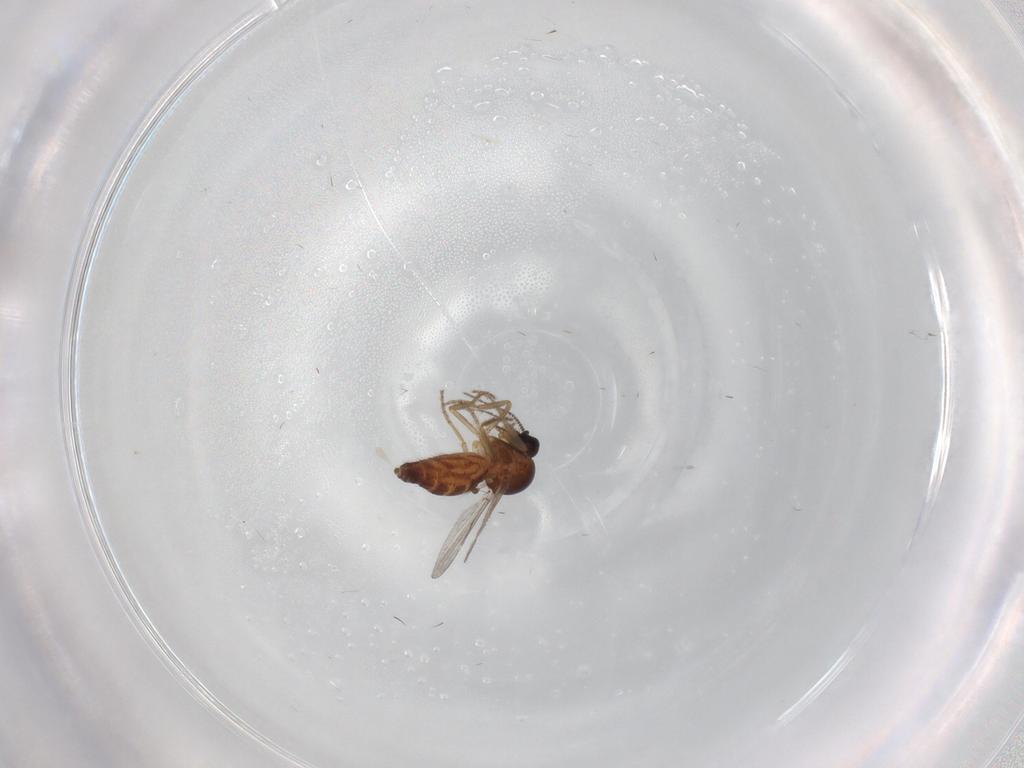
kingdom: Animalia
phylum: Arthropoda
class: Insecta
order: Diptera
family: Ceratopogonidae
